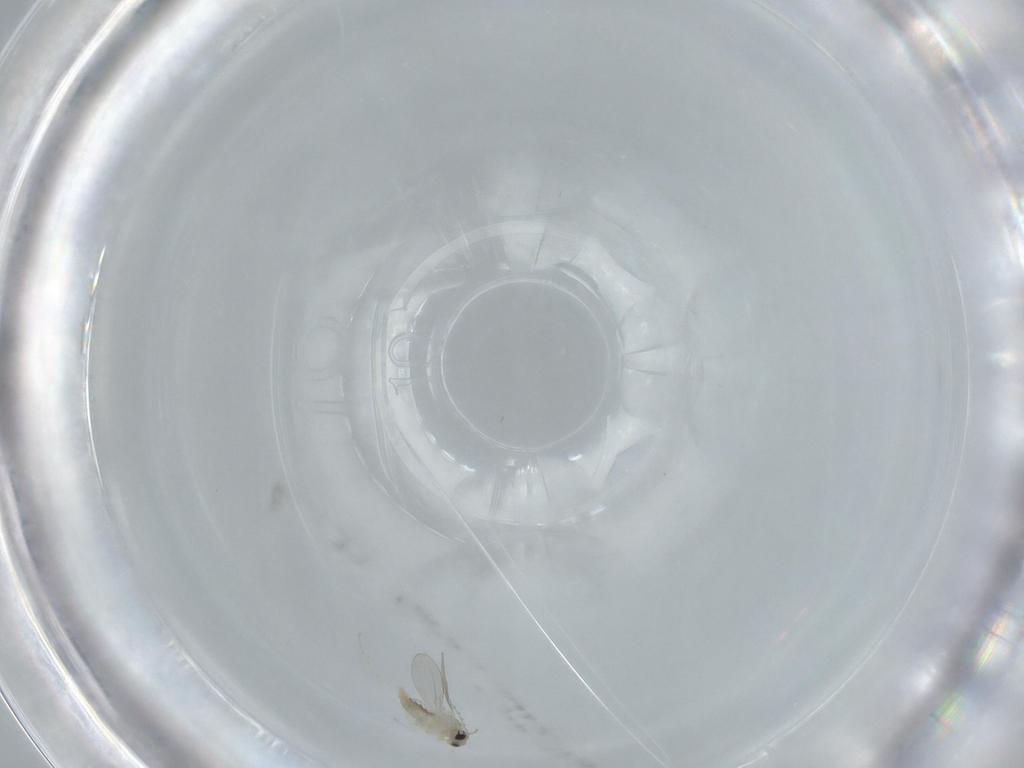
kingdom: Animalia
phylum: Arthropoda
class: Insecta
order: Diptera
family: Cecidomyiidae
